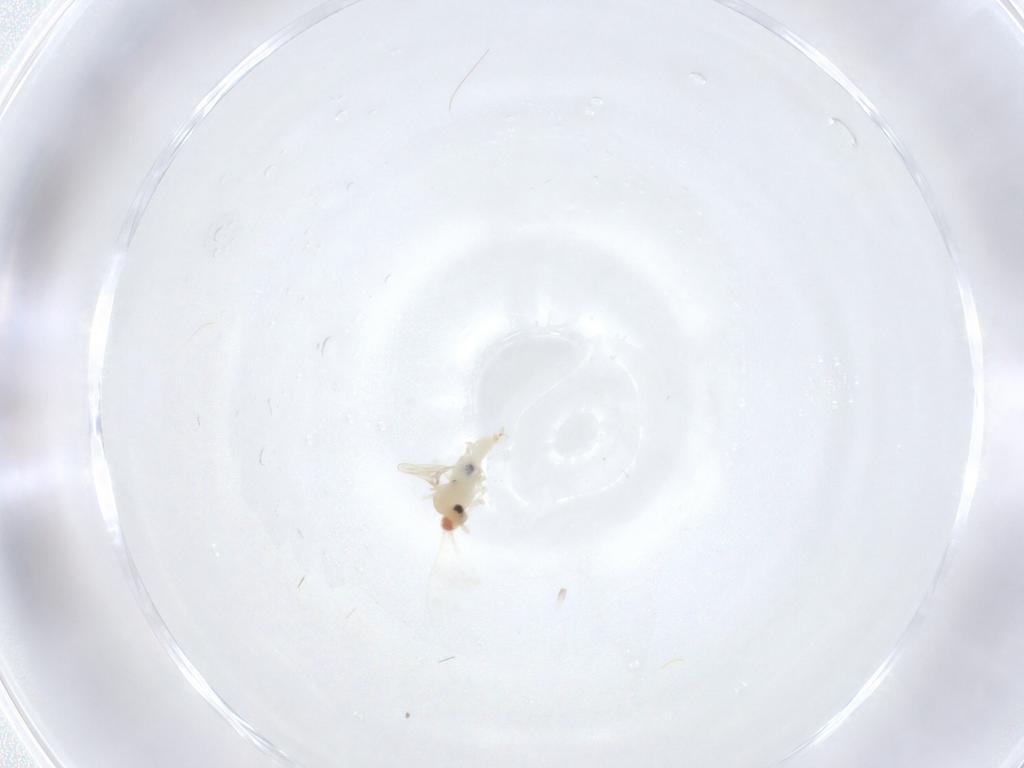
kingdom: Animalia
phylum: Arthropoda
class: Insecta
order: Diptera
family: Cecidomyiidae
